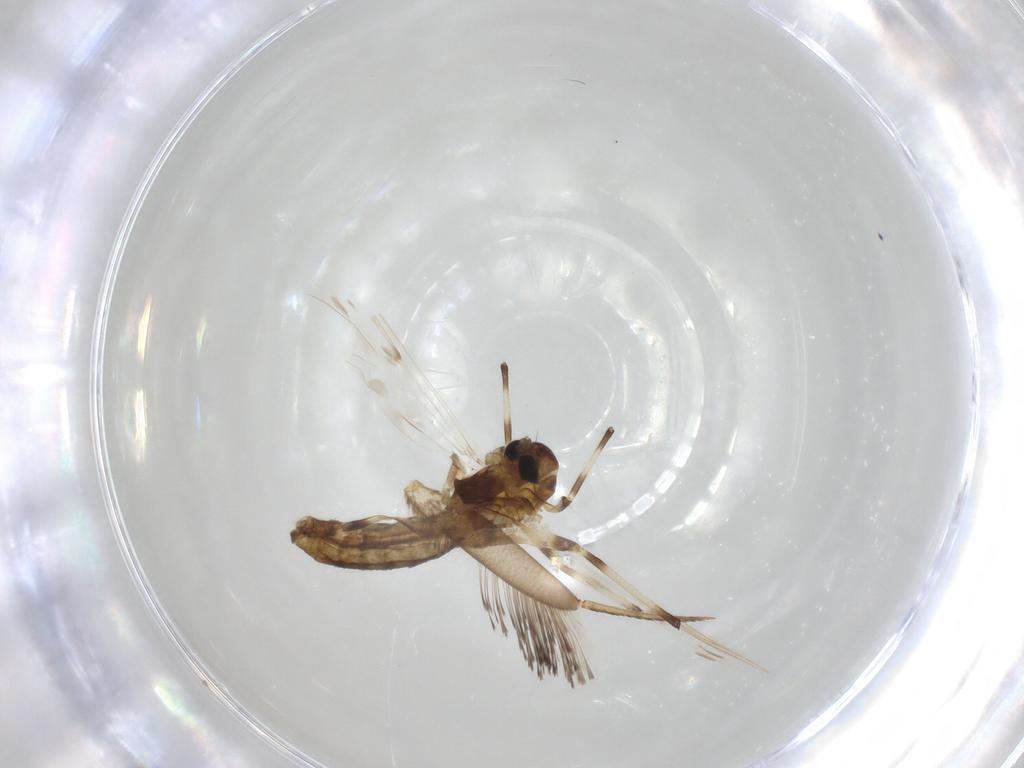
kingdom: Animalia
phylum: Arthropoda
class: Insecta
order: Diptera
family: Chironomidae
